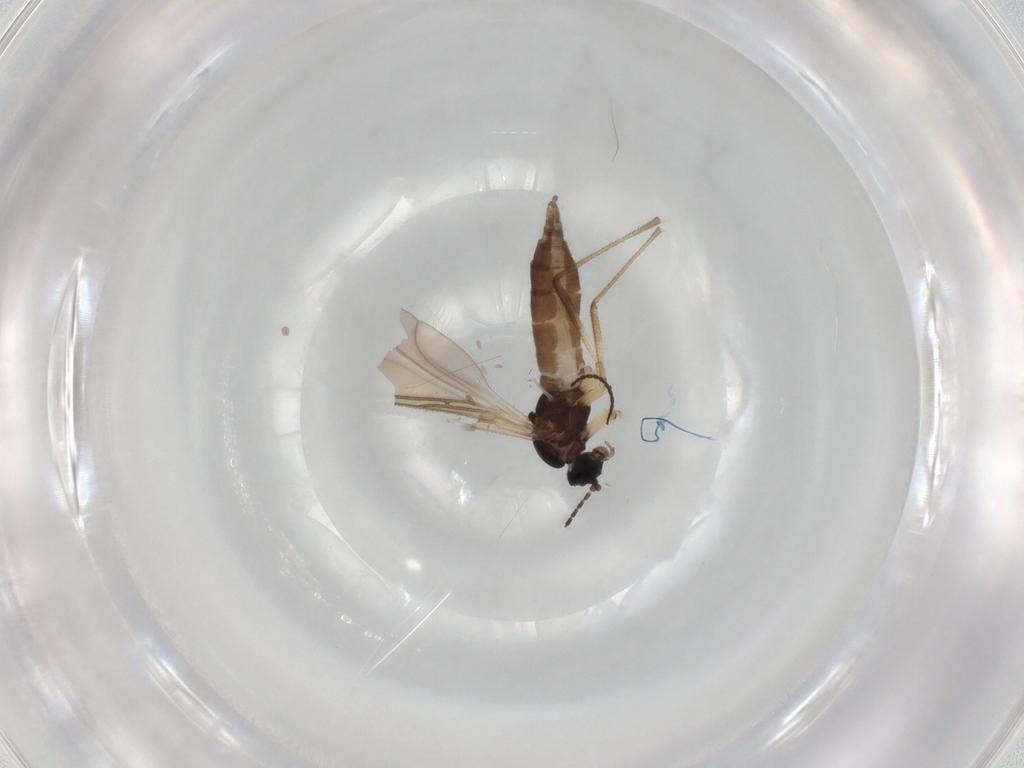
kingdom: Animalia
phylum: Arthropoda
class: Insecta
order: Diptera
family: Sciaridae
